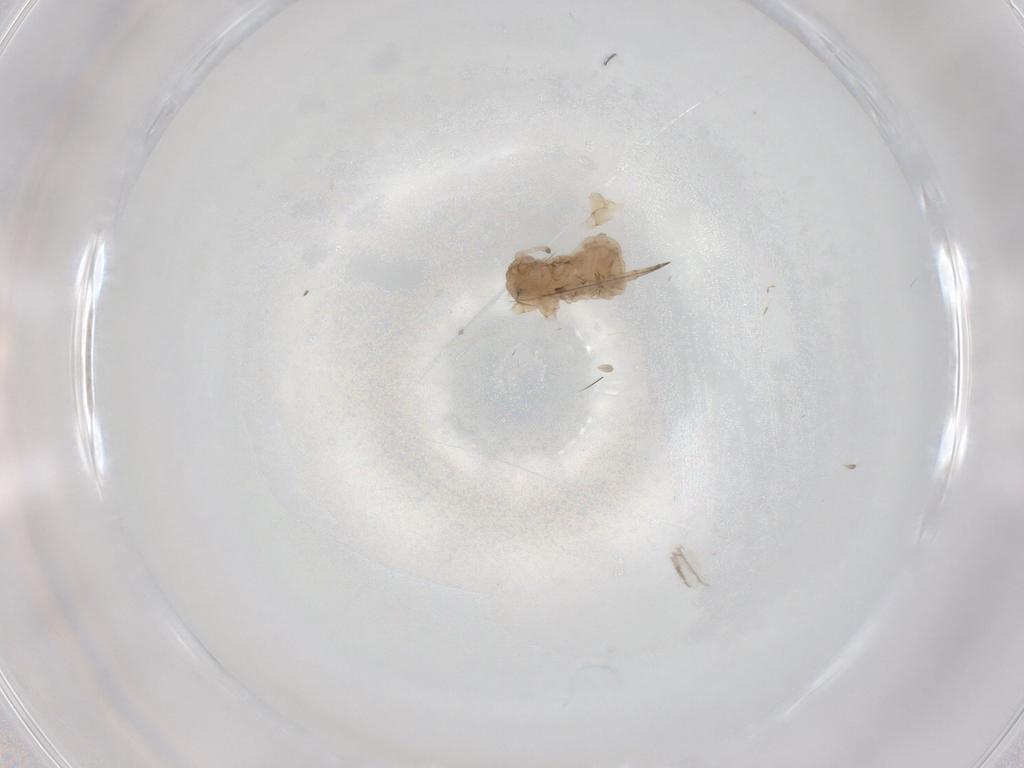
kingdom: Animalia
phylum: Arthropoda
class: Insecta
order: Hemiptera
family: Aphididae
